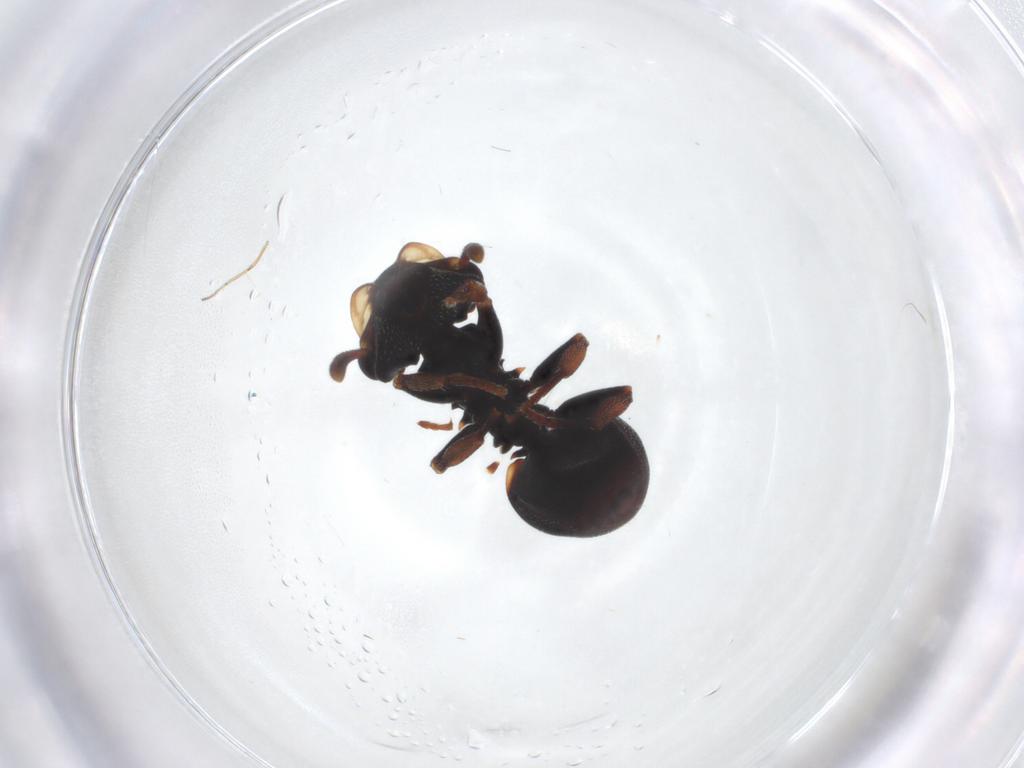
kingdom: Animalia
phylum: Arthropoda
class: Insecta
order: Hymenoptera
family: Formicidae
